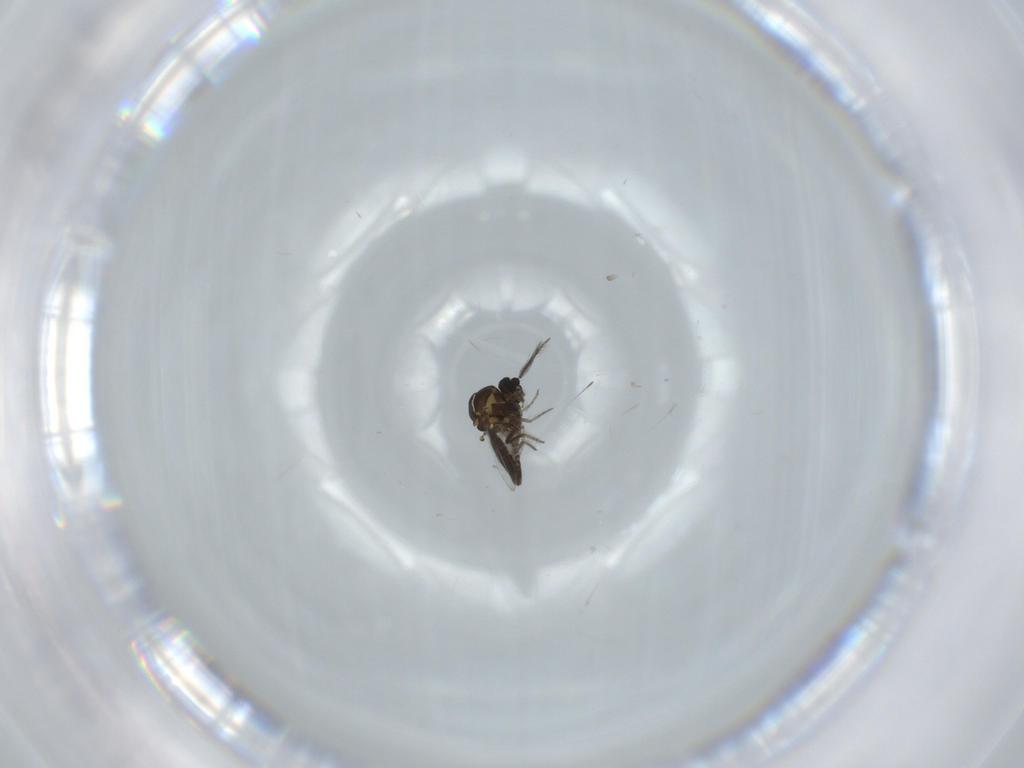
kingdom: Animalia
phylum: Arthropoda
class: Insecta
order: Diptera
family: Ceratopogonidae
